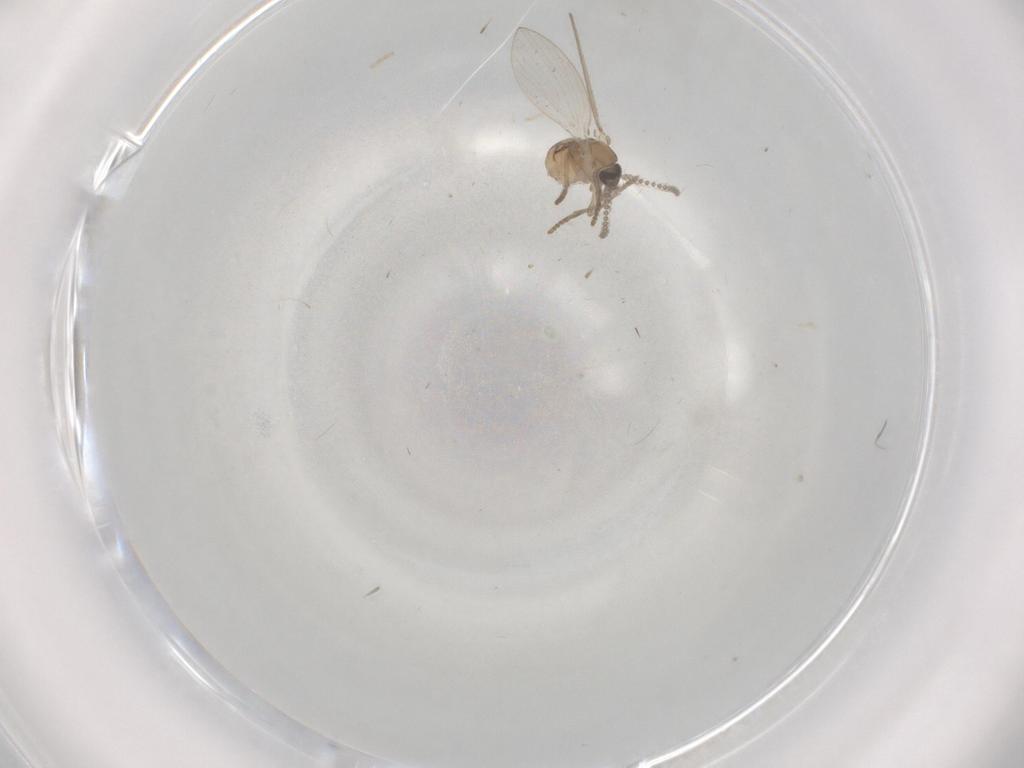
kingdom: Animalia
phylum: Arthropoda
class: Insecta
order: Diptera
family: Cecidomyiidae
